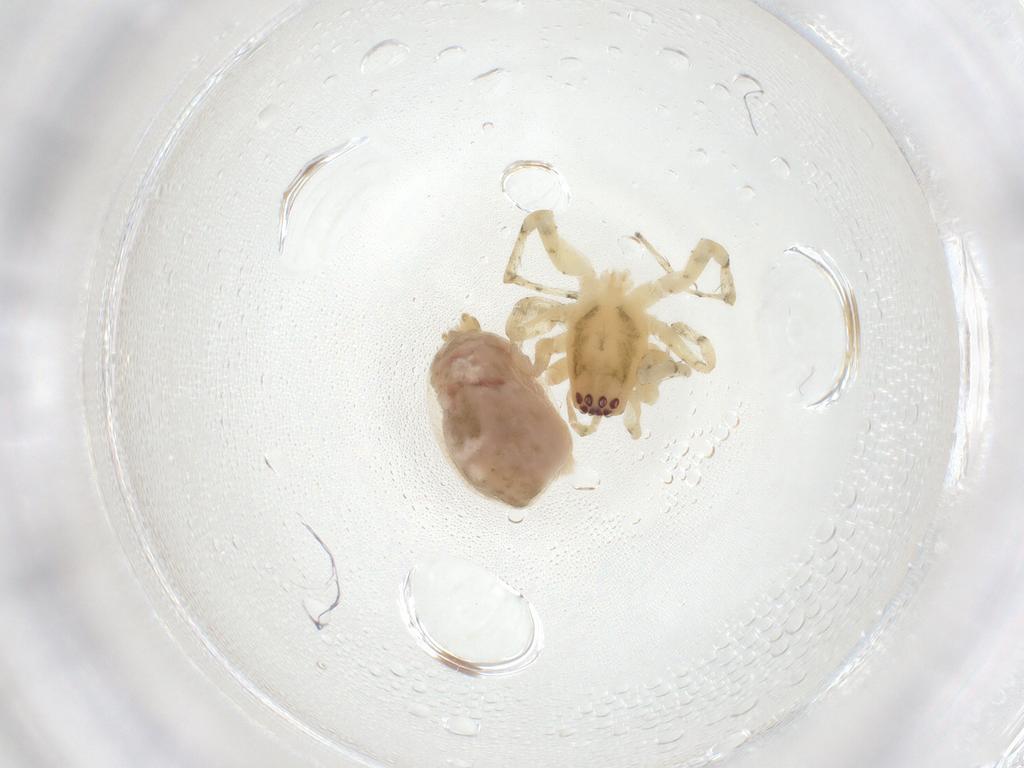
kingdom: Animalia
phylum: Arthropoda
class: Arachnida
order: Araneae
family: Anyphaenidae
